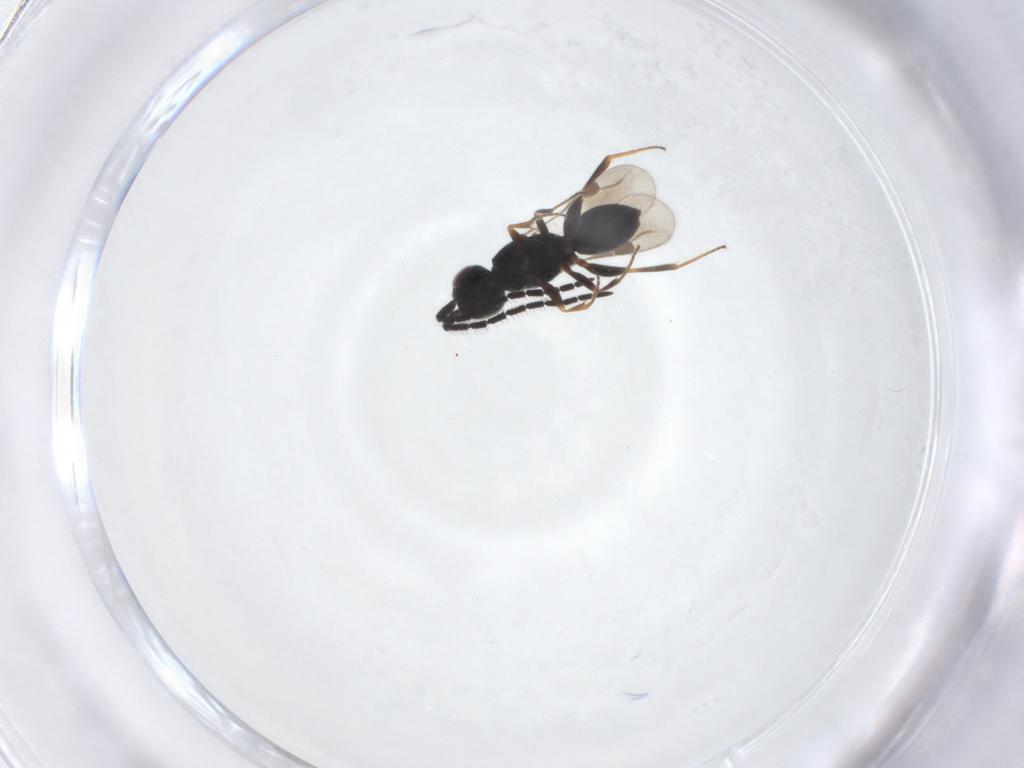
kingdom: Animalia
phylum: Arthropoda
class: Insecta
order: Hymenoptera
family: Megaspilidae
